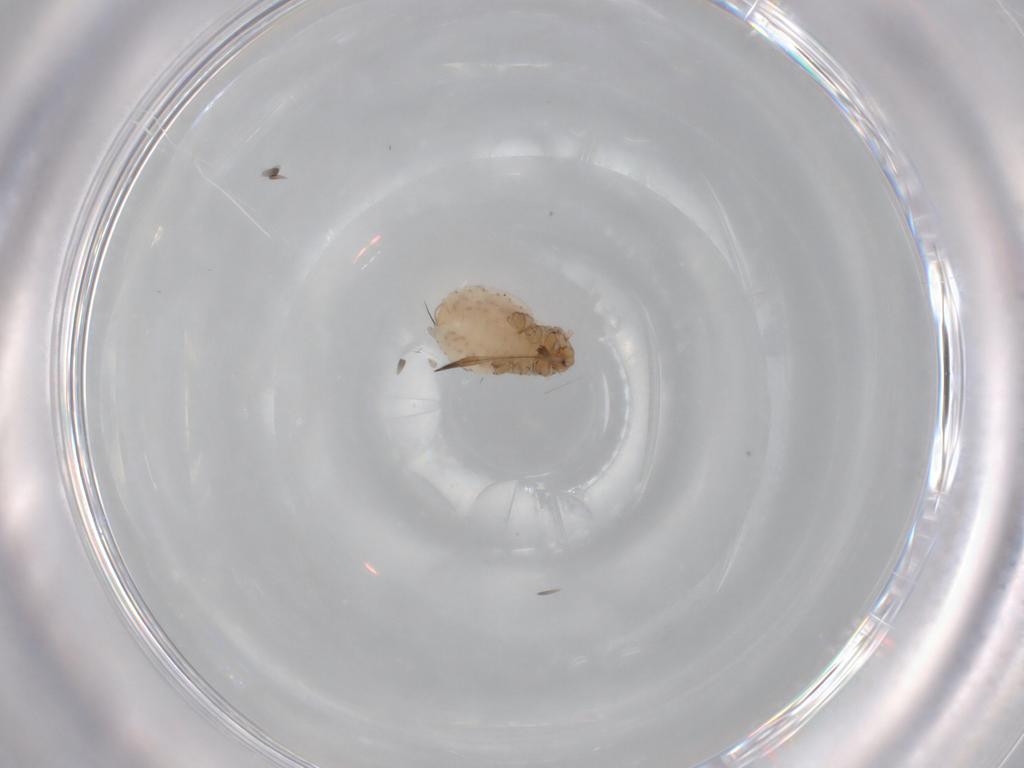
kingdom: Animalia
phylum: Arthropoda
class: Insecta
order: Hemiptera
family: Aphididae
